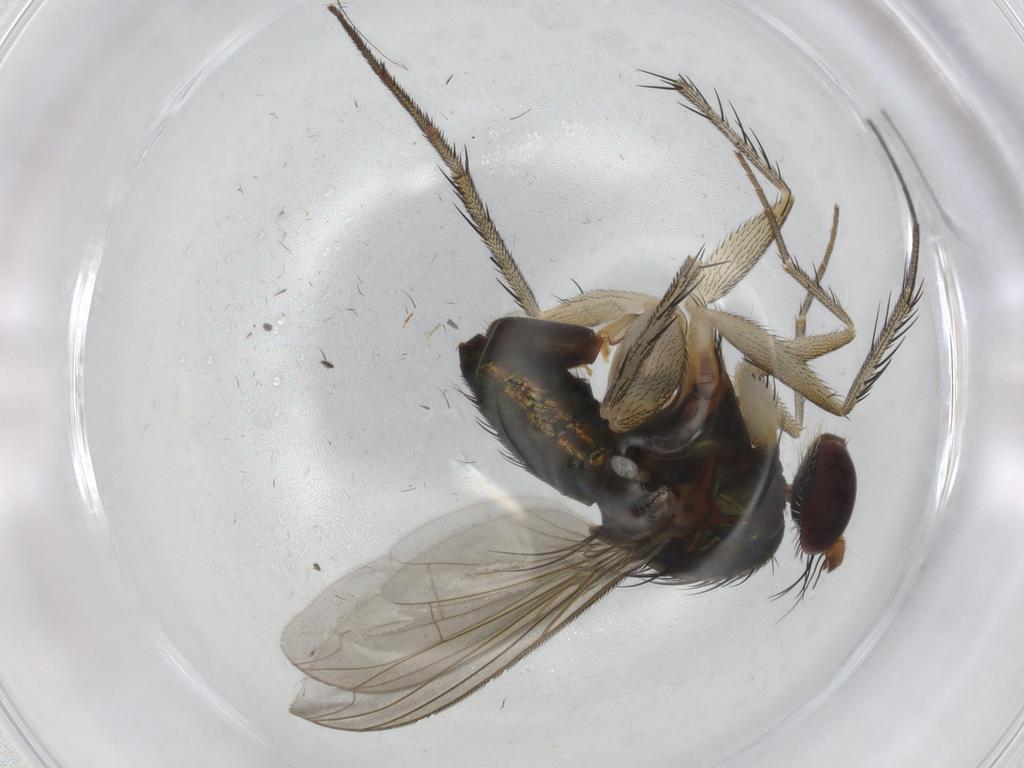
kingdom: Animalia
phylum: Arthropoda
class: Insecta
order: Diptera
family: Dolichopodidae
